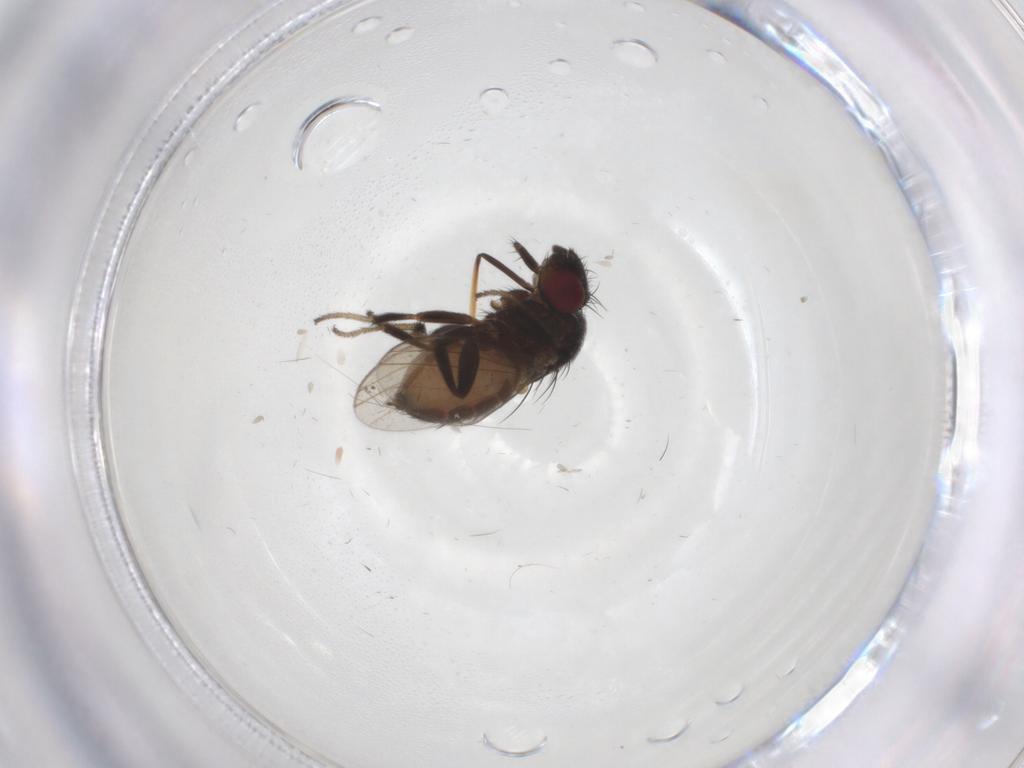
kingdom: Animalia
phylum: Arthropoda
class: Insecta
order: Diptera
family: Milichiidae
